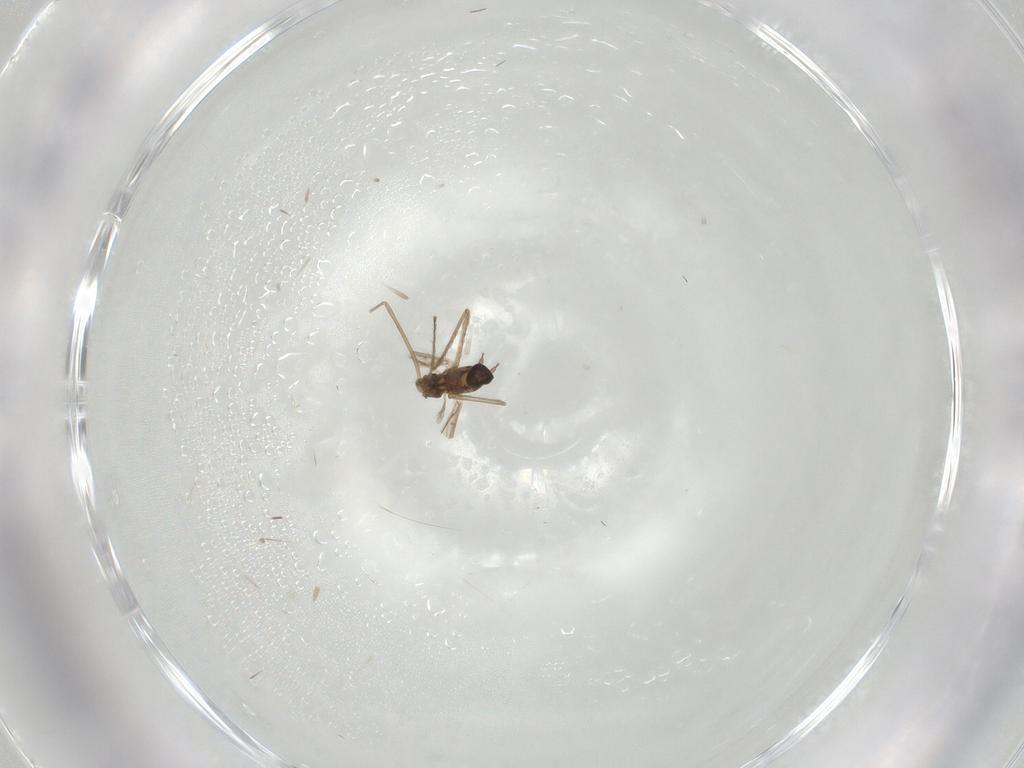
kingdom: Animalia
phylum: Arthropoda
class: Insecta
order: Diptera
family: Cecidomyiidae
